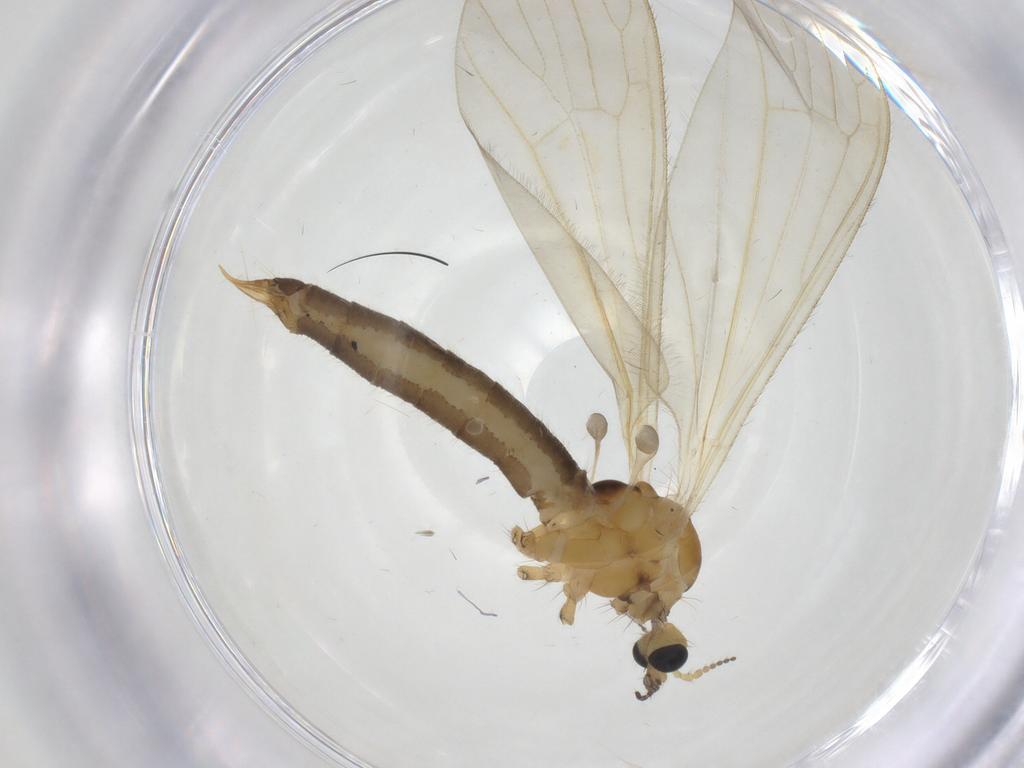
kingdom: Animalia
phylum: Arthropoda
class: Insecta
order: Diptera
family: Limoniidae
